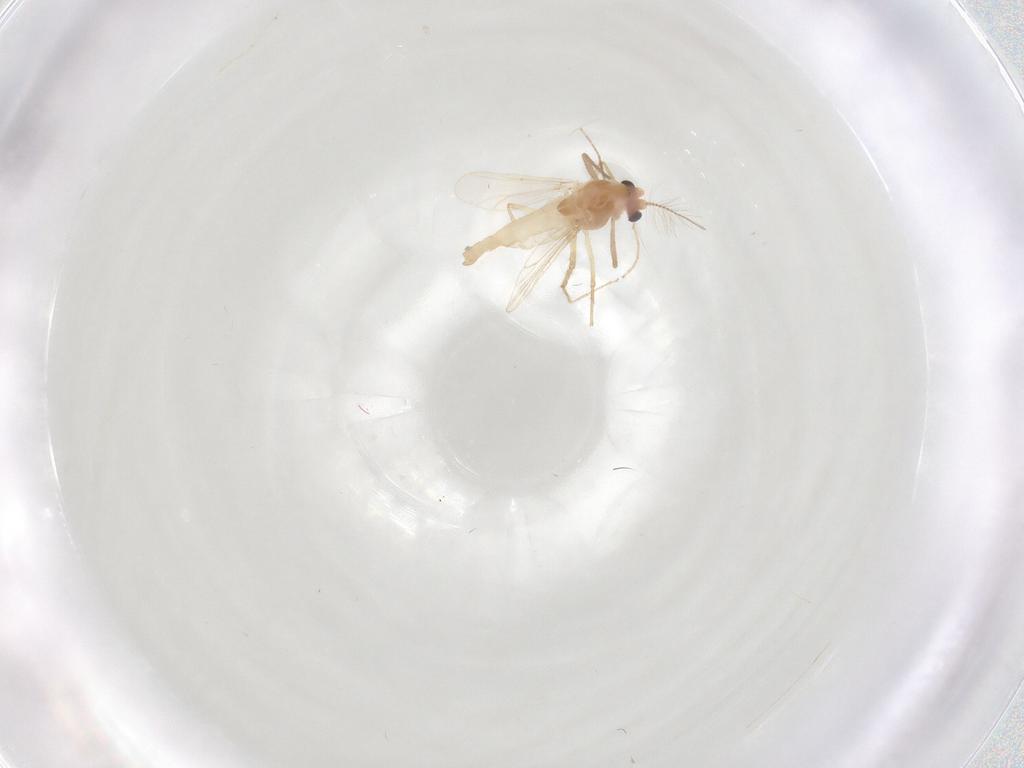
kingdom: Animalia
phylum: Arthropoda
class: Insecta
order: Diptera
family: Chironomidae
